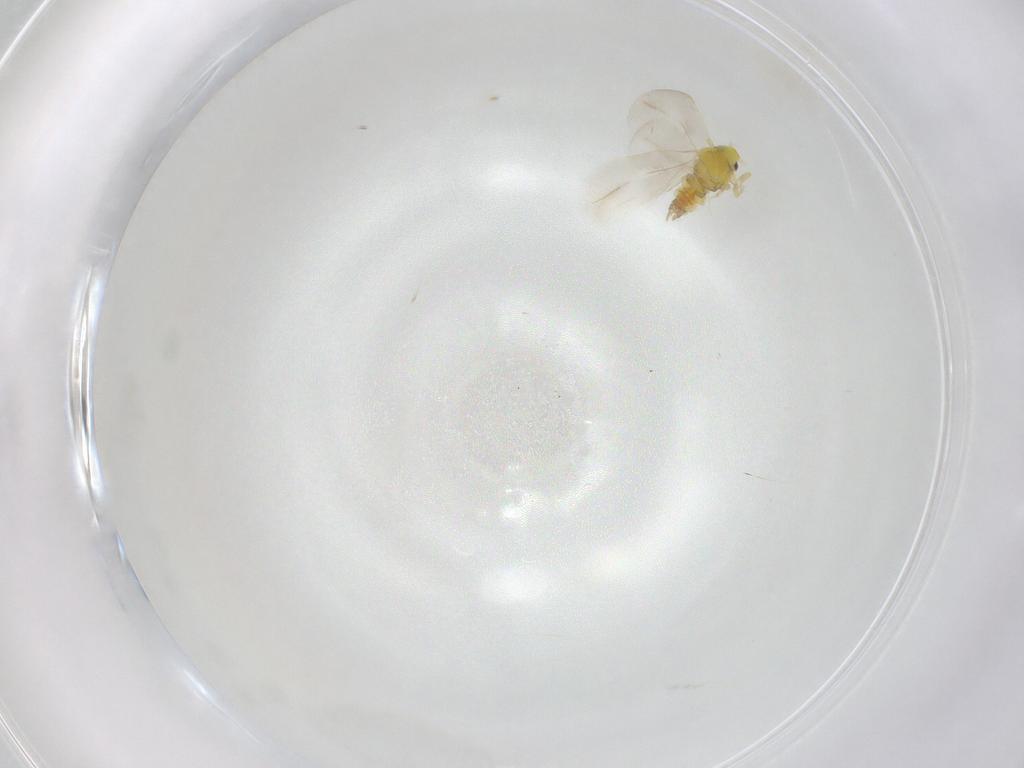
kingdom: Animalia
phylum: Arthropoda
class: Insecta
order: Hemiptera
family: Aleyrodidae
